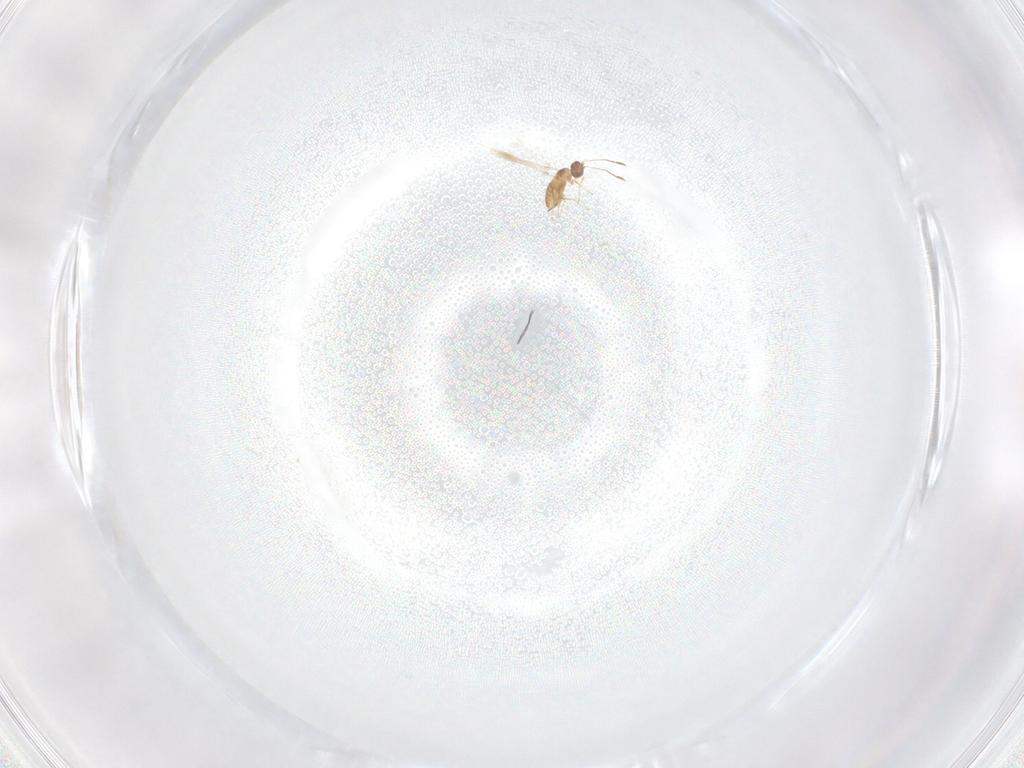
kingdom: Animalia
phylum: Arthropoda
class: Insecta
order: Hymenoptera
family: Mymaridae
